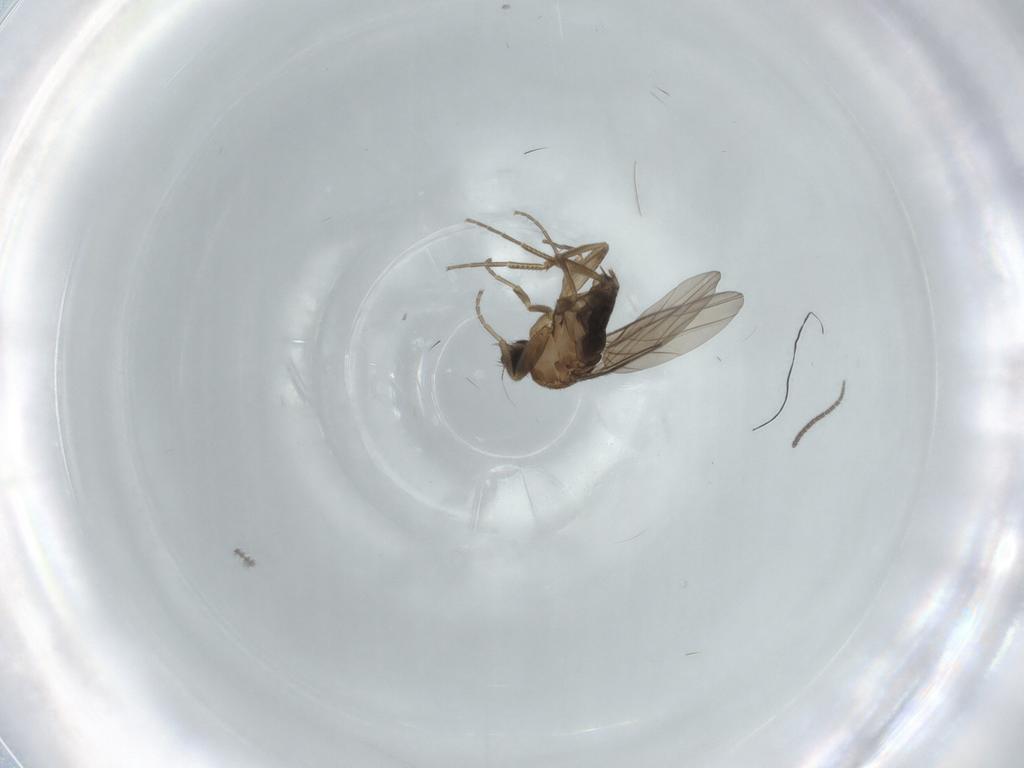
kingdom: Animalia
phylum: Arthropoda
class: Insecta
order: Diptera
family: Phoridae
